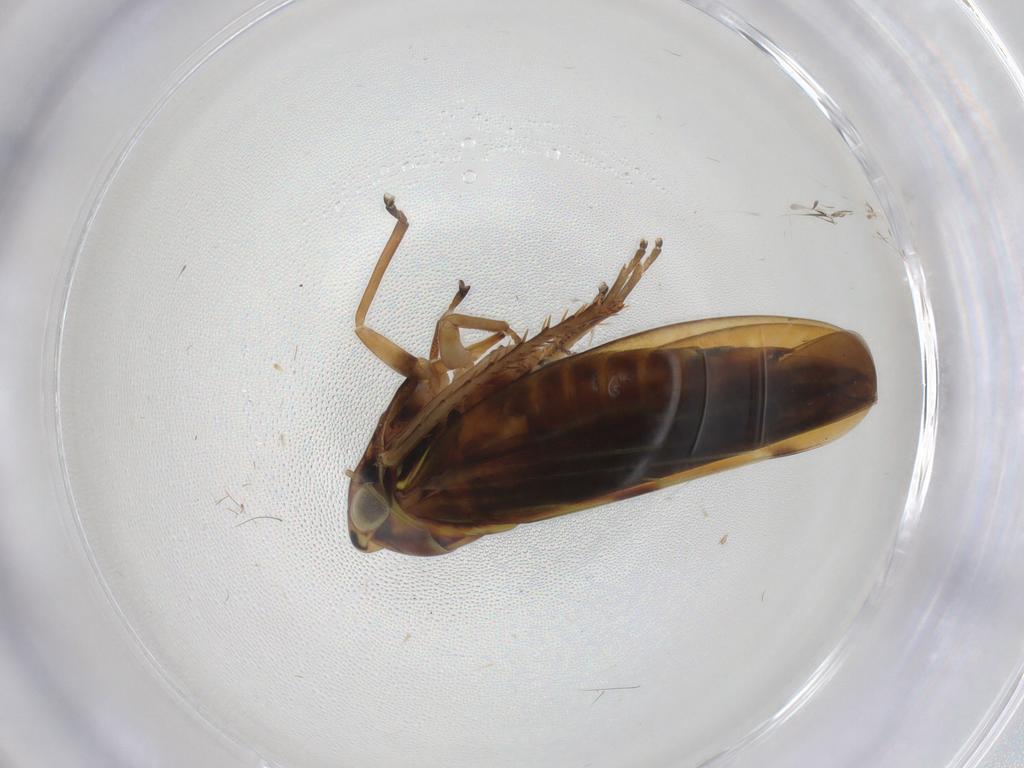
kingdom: Animalia
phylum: Arthropoda
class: Insecta
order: Hemiptera
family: Cicadellidae
